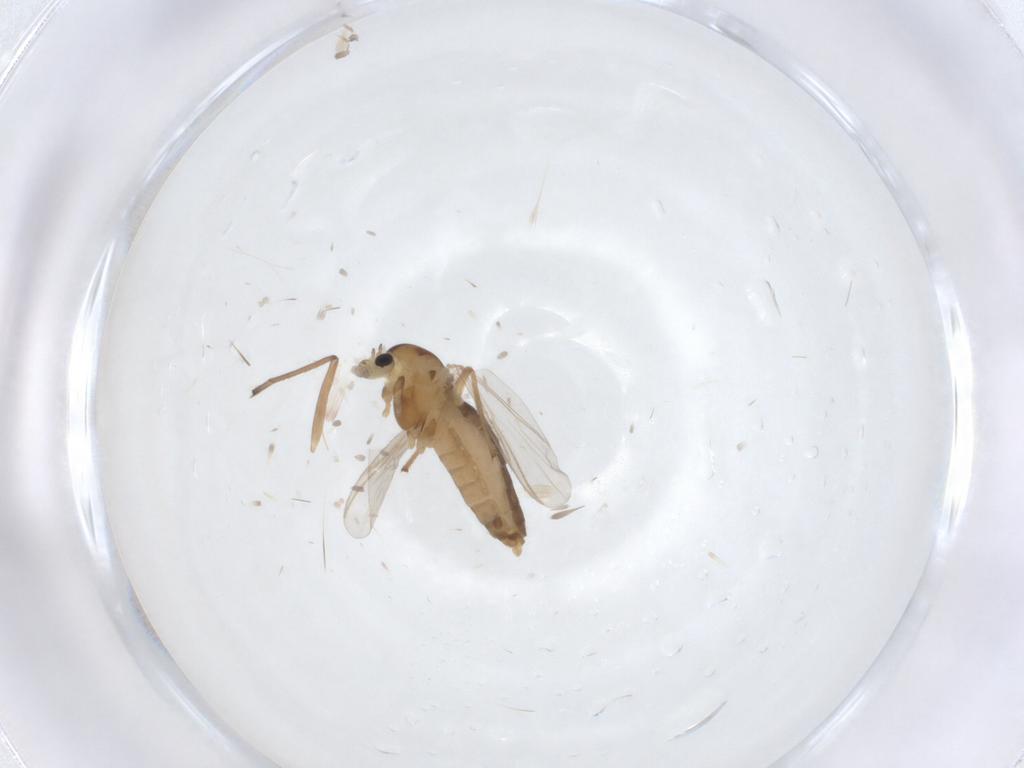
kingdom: Animalia
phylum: Arthropoda
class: Insecta
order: Diptera
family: Chironomidae
